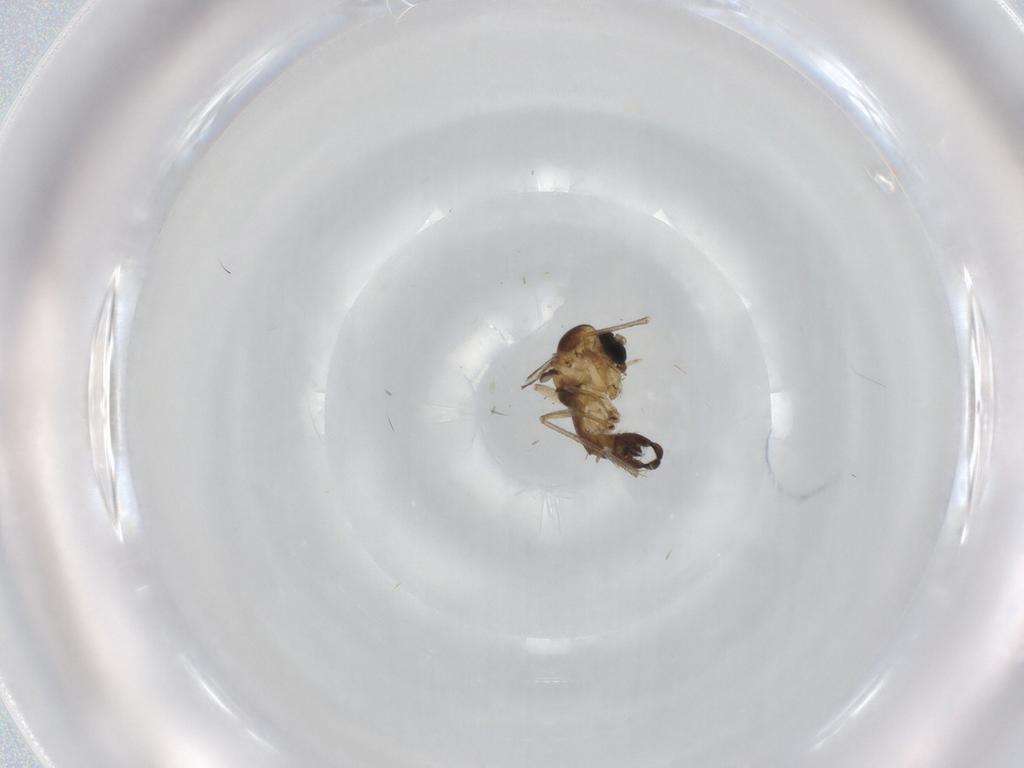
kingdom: Animalia
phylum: Arthropoda
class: Insecta
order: Diptera
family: Sciaridae
